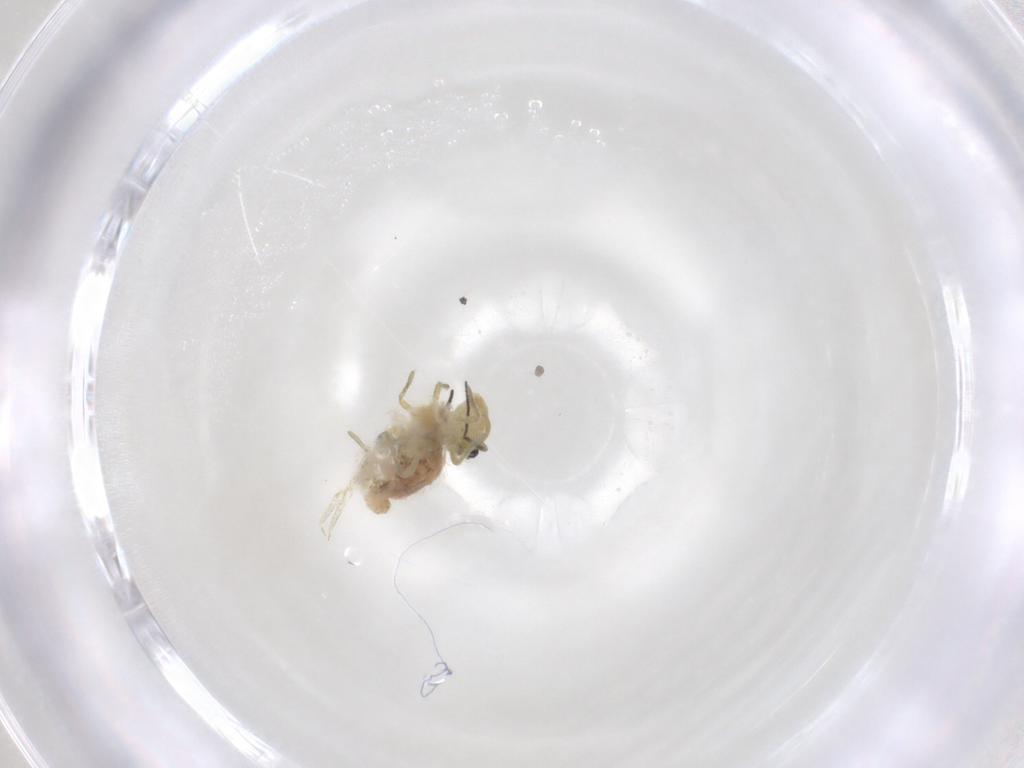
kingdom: Animalia
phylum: Arthropoda
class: Collembola
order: Symphypleona
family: Sminthuridae
